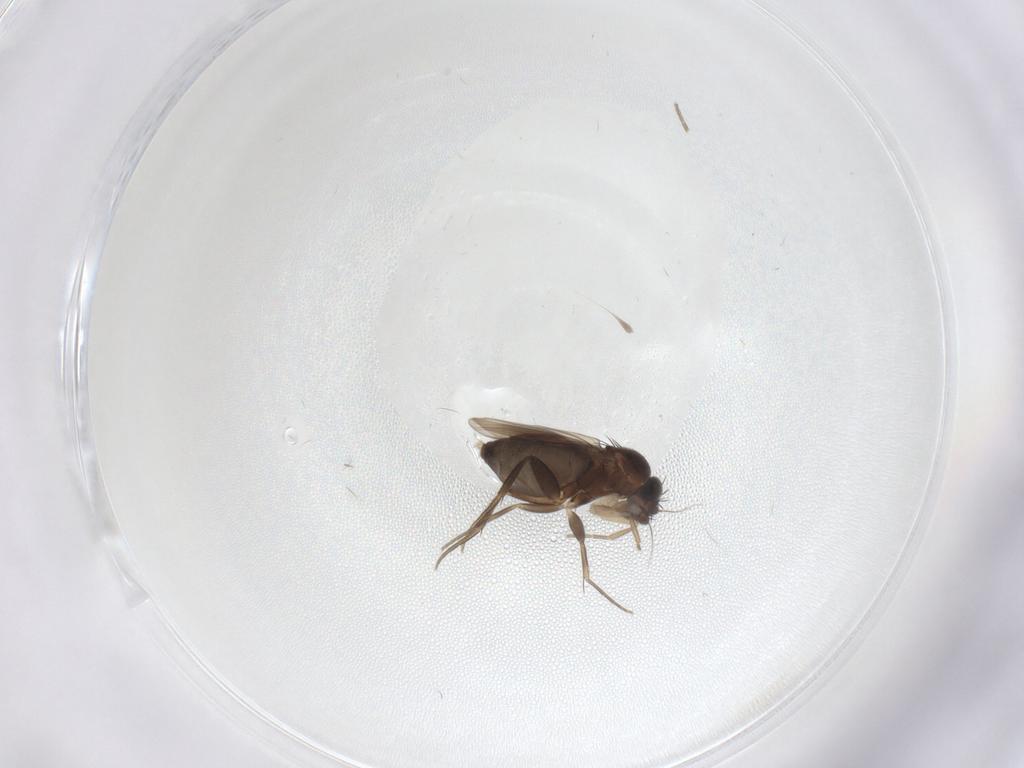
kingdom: Animalia
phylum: Arthropoda
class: Insecta
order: Diptera
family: Phoridae
